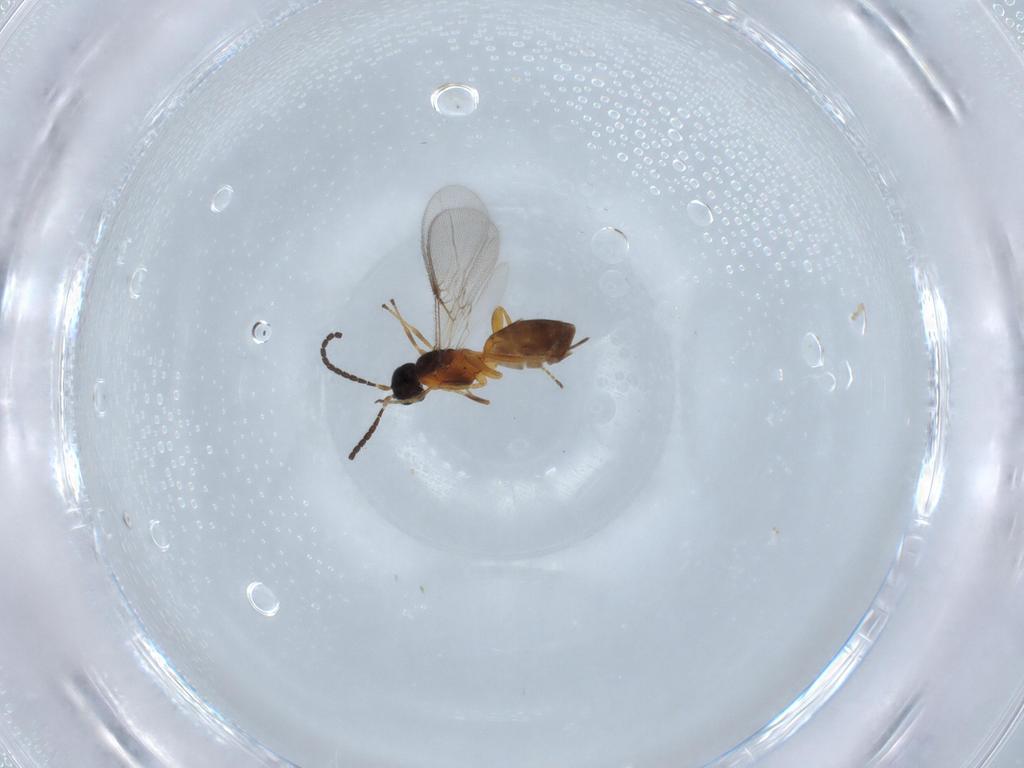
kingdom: Animalia
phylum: Arthropoda
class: Insecta
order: Hymenoptera
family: Braconidae
